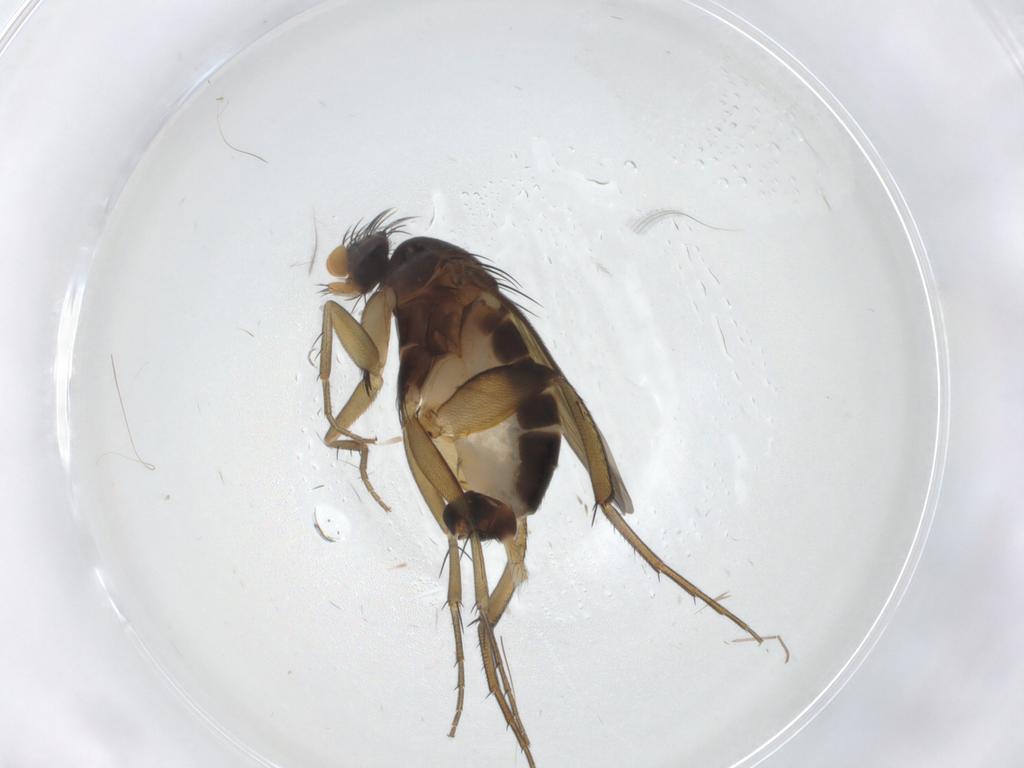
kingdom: Animalia
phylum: Arthropoda
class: Insecta
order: Diptera
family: Phoridae
